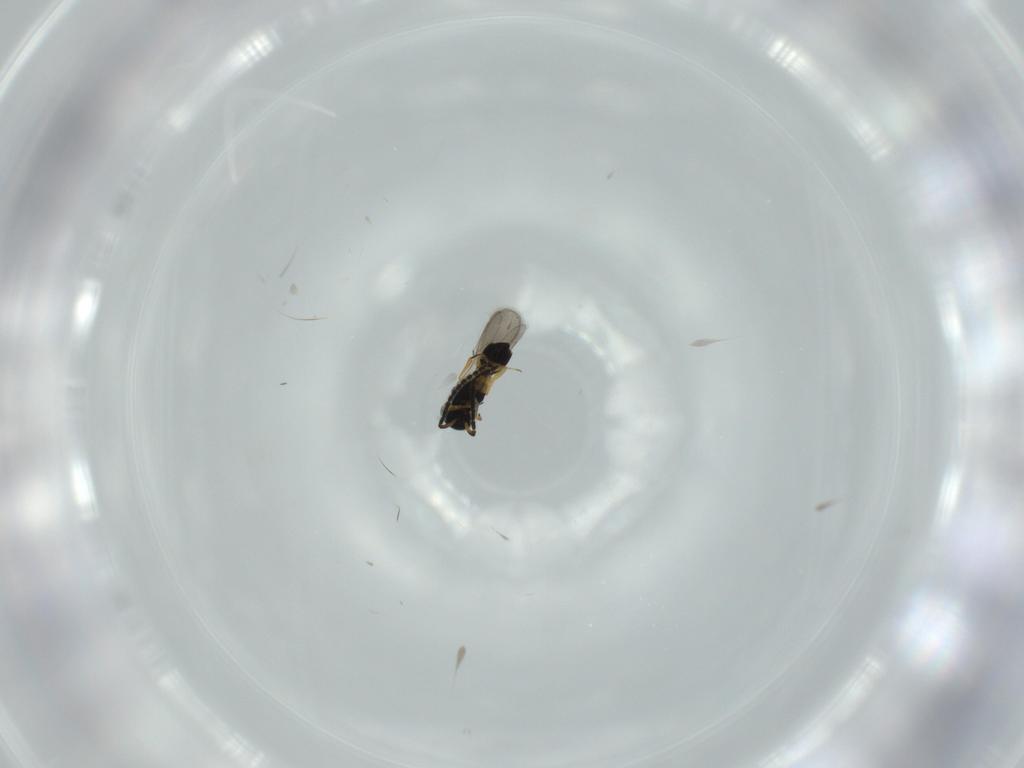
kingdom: Animalia
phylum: Arthropoda
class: Insecta
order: Hymenoptera
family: Scelionidae
